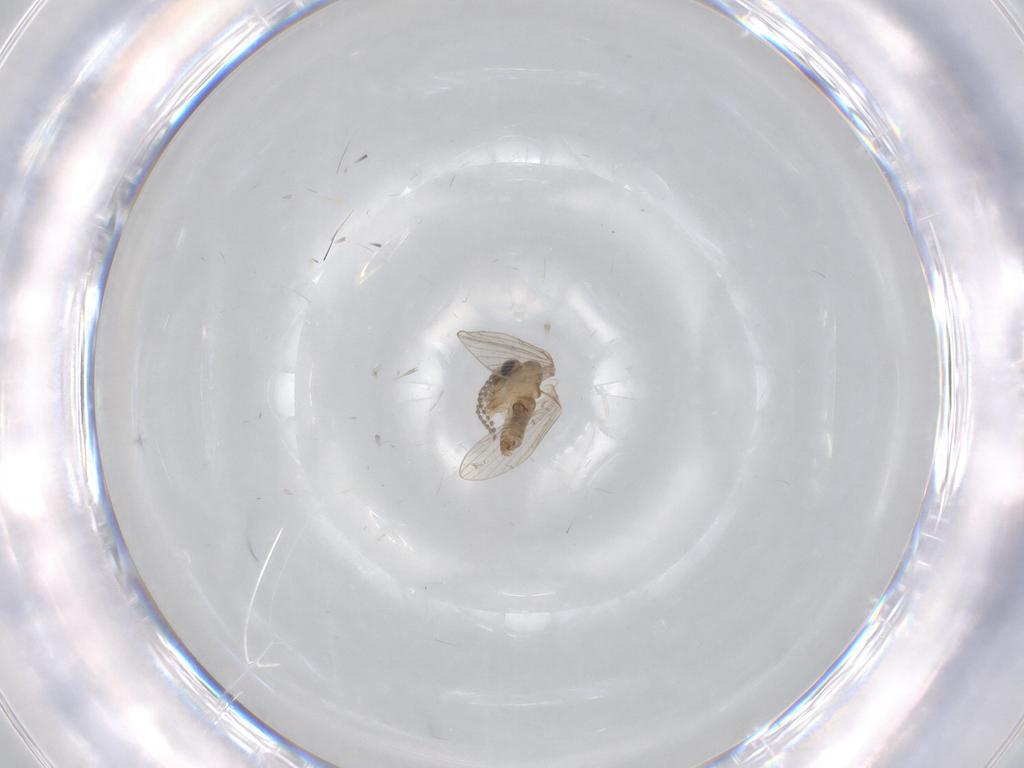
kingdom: Animalia
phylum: Arthropoda
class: Insecta
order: Diptera
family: Psychodidae
